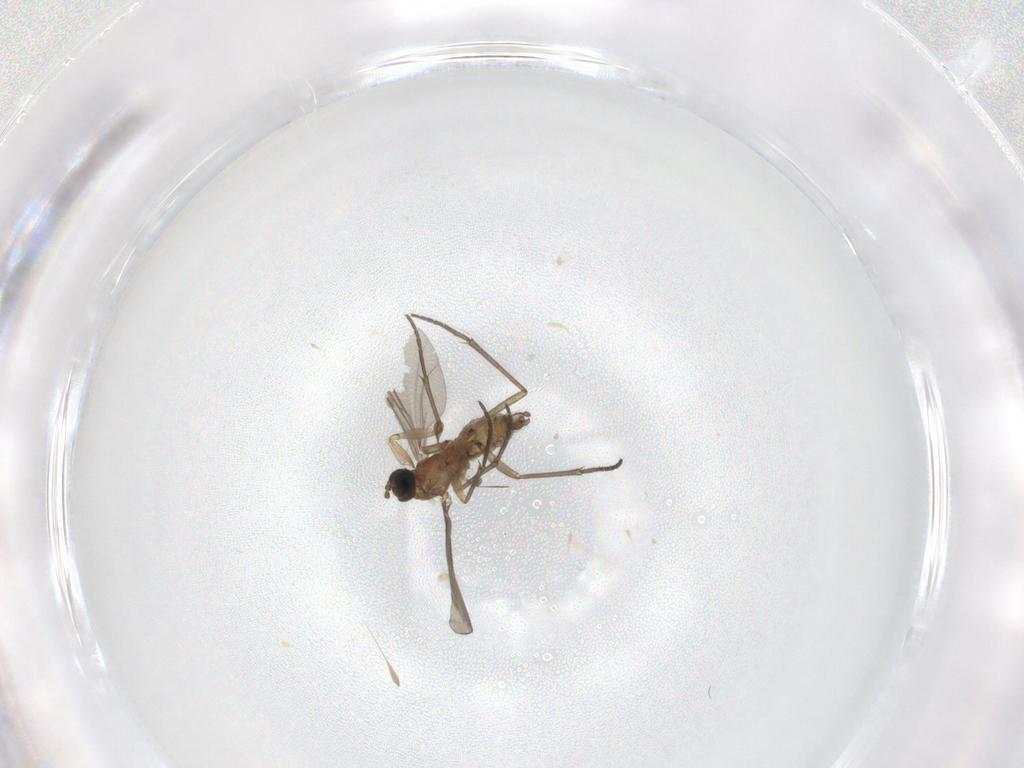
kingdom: Animalia
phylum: Arthropoda
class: Insecta
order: Diptera
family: Sciaridae
